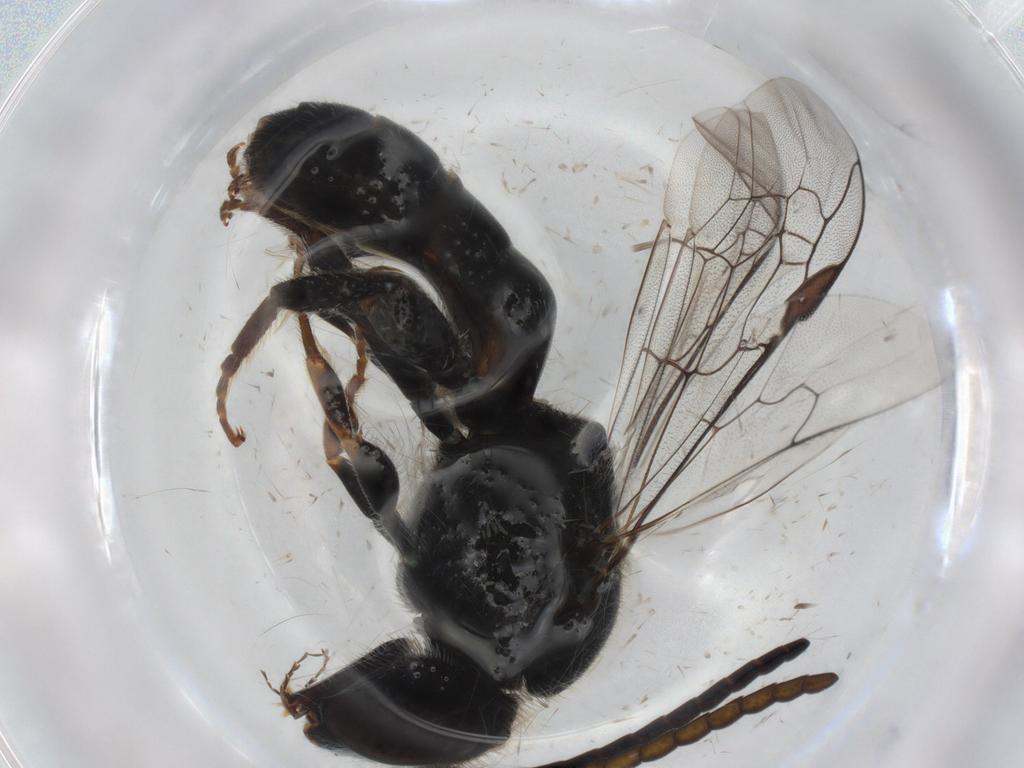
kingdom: Animalia
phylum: Arthropoda
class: Insecta
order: Hymenoptera
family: Halictidae
